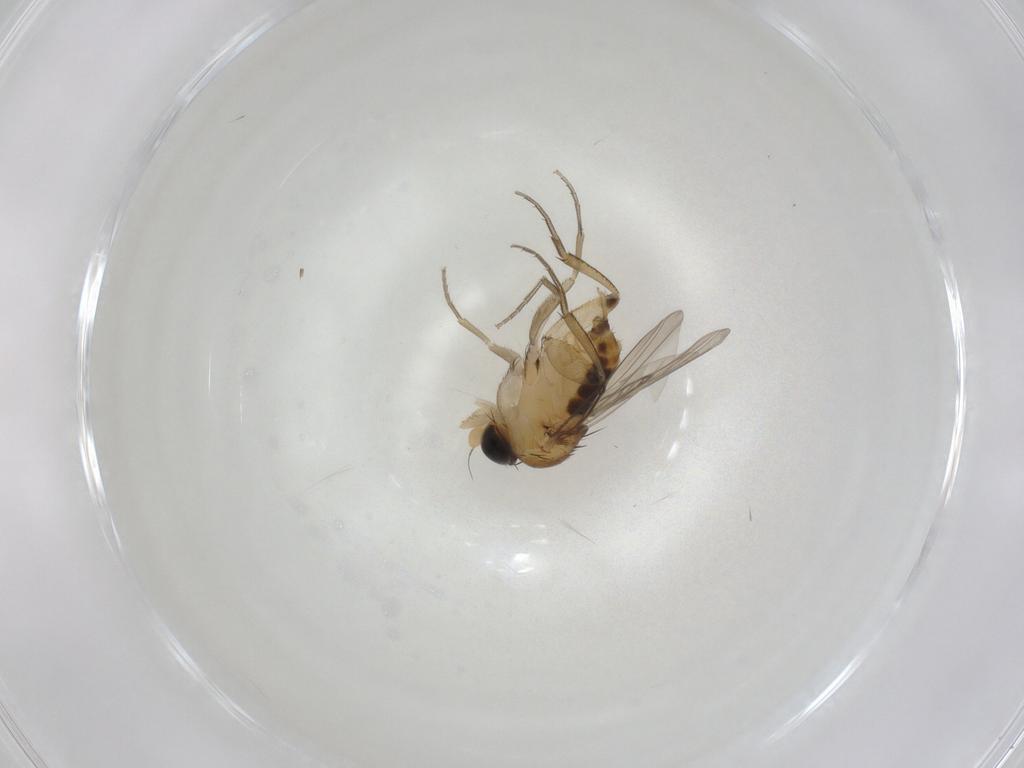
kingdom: Animalia
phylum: Arthropoda
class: Insecta
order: Diptera
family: Phoridae
